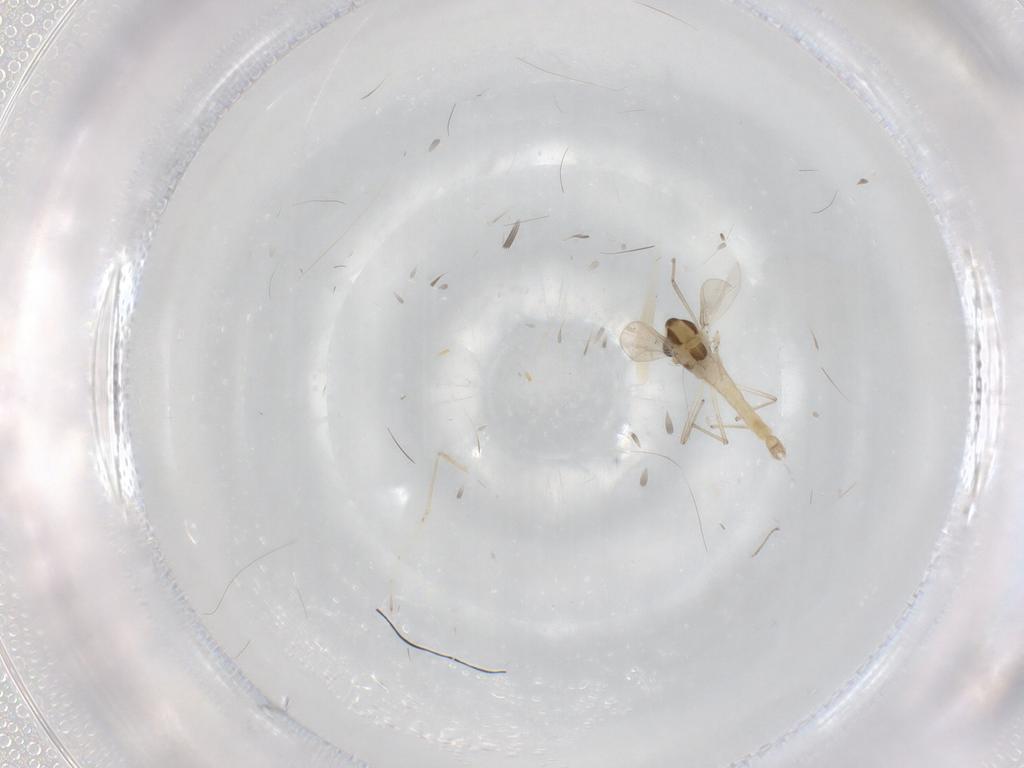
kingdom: Animalia
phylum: Arthropoda
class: Insecta
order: Diptera
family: Chironomidae
